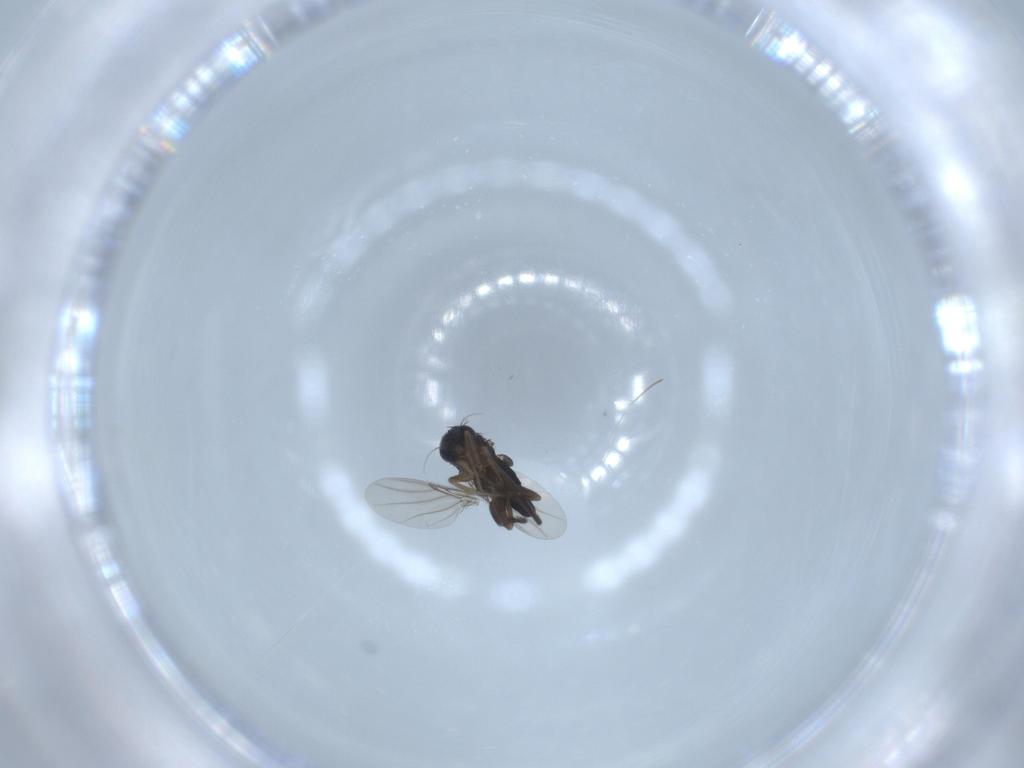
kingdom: Animalia
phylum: Arthropoda
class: Insecta
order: Diptera
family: Phoridae
